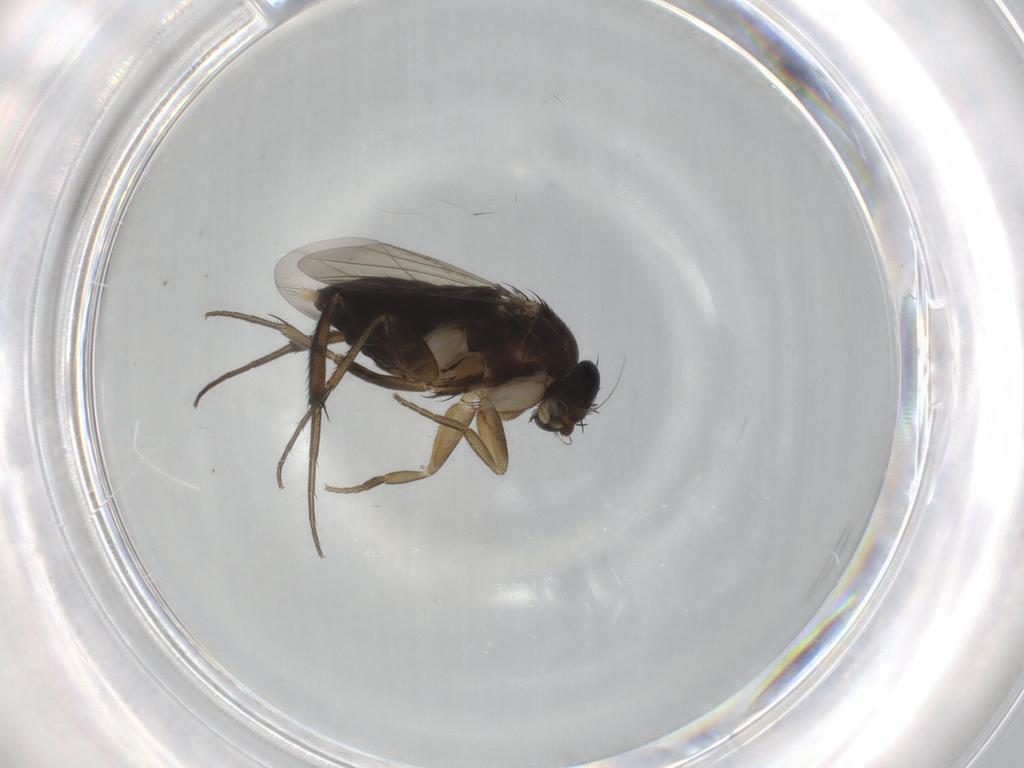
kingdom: Animalia
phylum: Arthropoda
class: Insecta
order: Diptera
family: Phoridae
